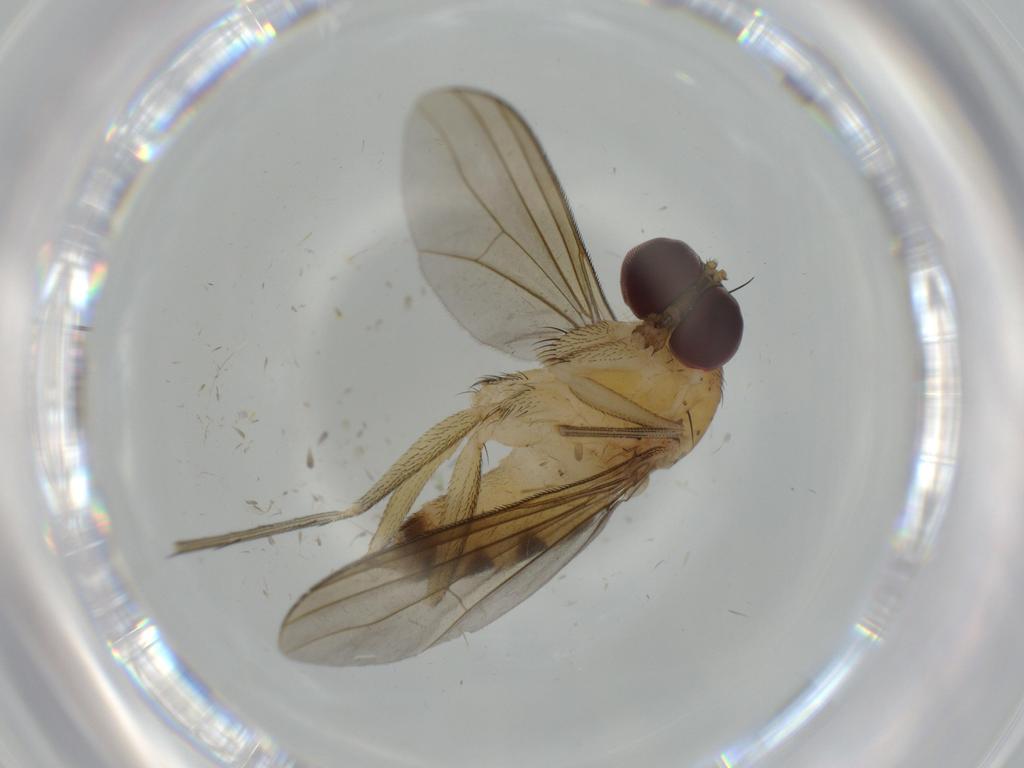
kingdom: Animalia
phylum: Arthropoda
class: Insecta
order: Diptera
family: Dolichopodidae
